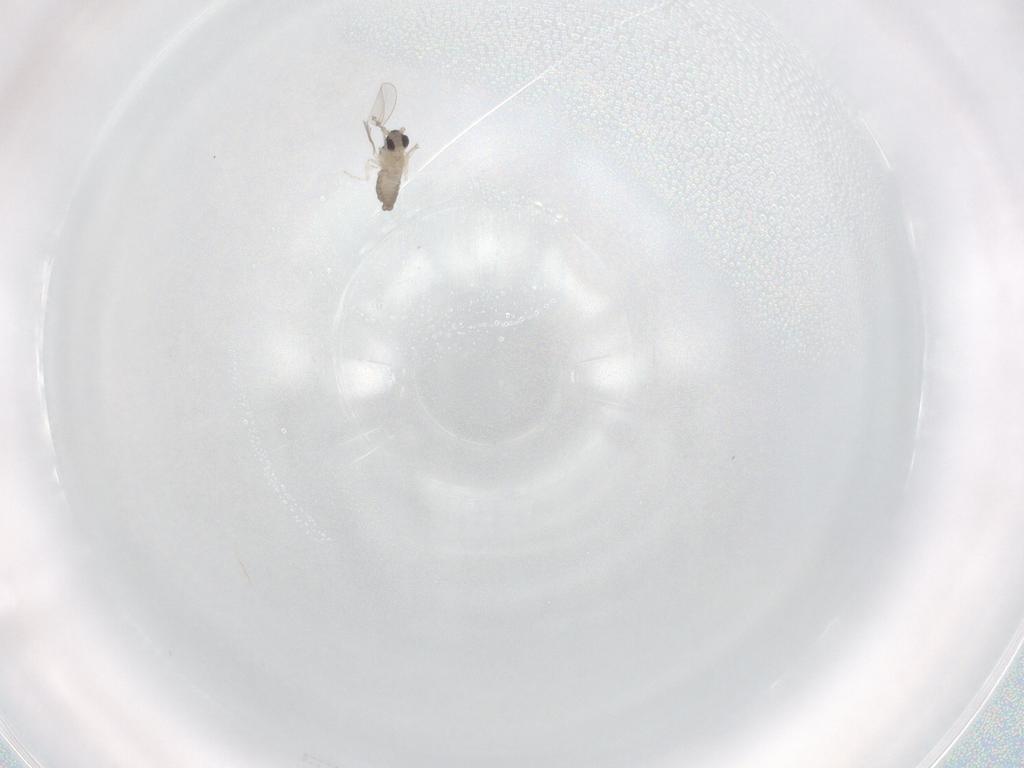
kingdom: Animalia
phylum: Arthropoda
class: Insecta
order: Diptera
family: Cecidomyiidae
